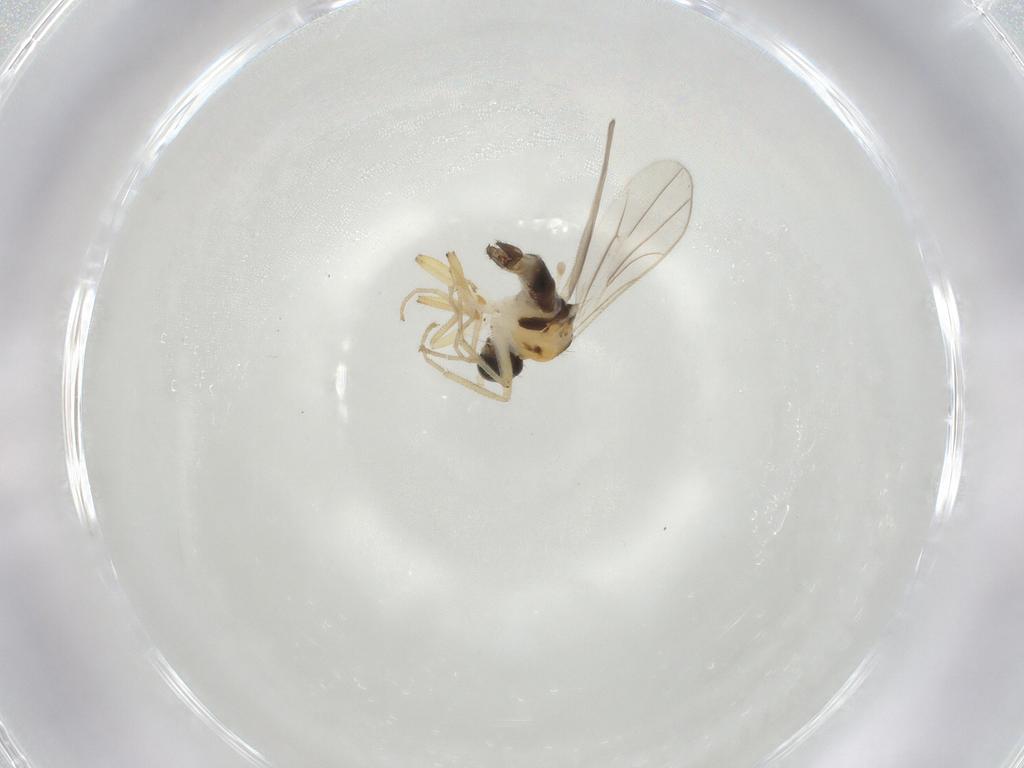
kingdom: Animalia
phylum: Arthropoda
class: Insecta
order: Diptera
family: Hybotidae
